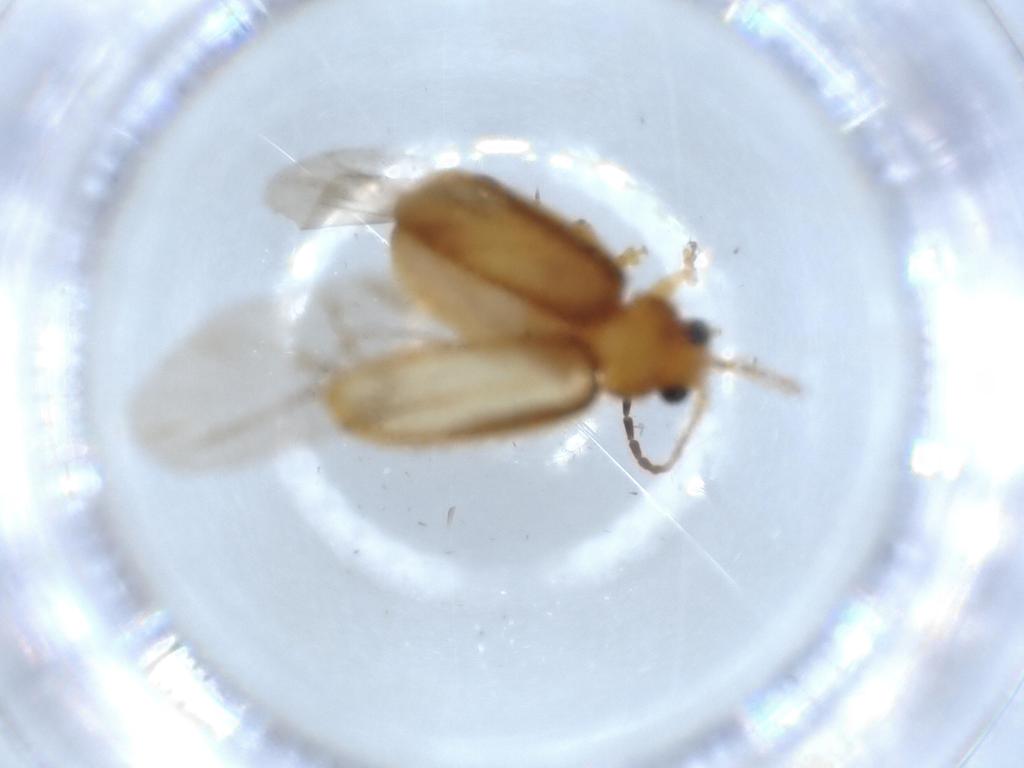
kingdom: Animalia
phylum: Arthropoda
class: Insecta
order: Coleoptera
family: Chrysomelidae
